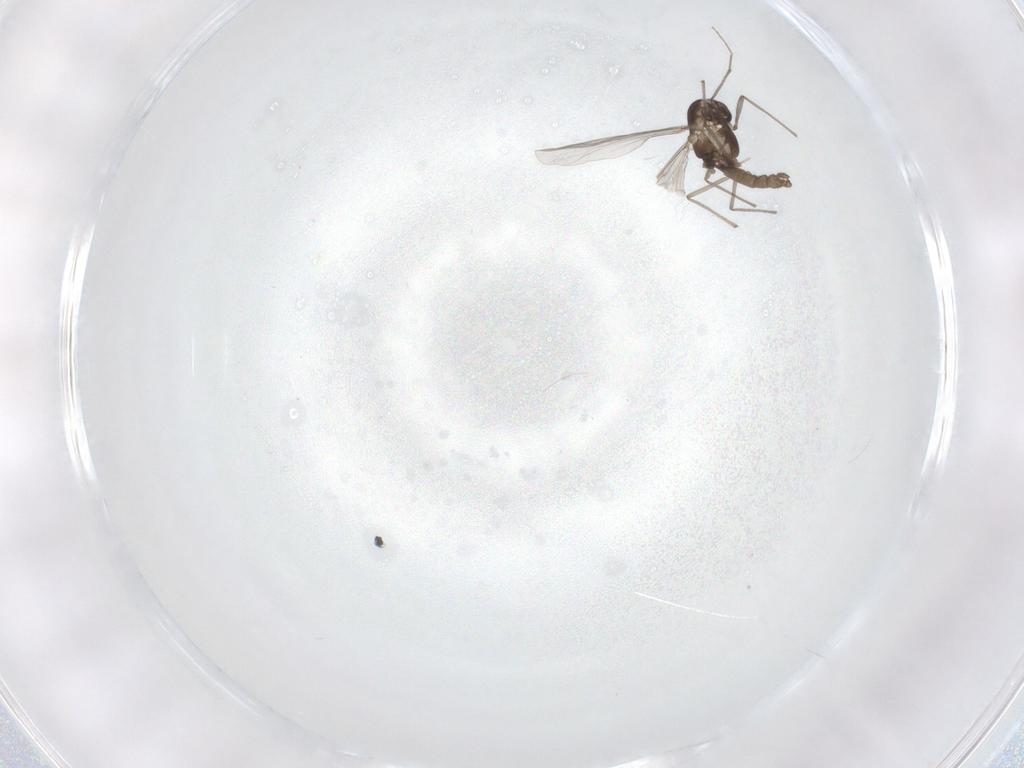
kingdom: Animalia
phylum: Arthropoda
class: Insecta
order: Diptera
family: Chironomidae
